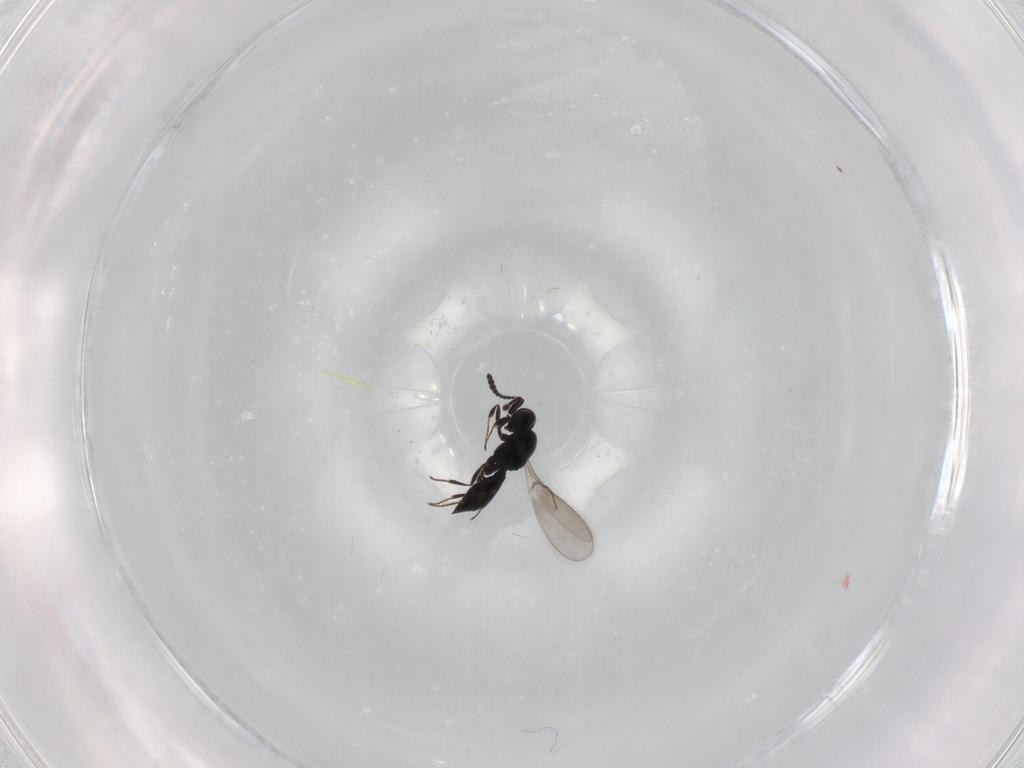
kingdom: Animalia
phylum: Arthropoda
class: Insecta
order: Hymenoptera
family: Scelionidae
